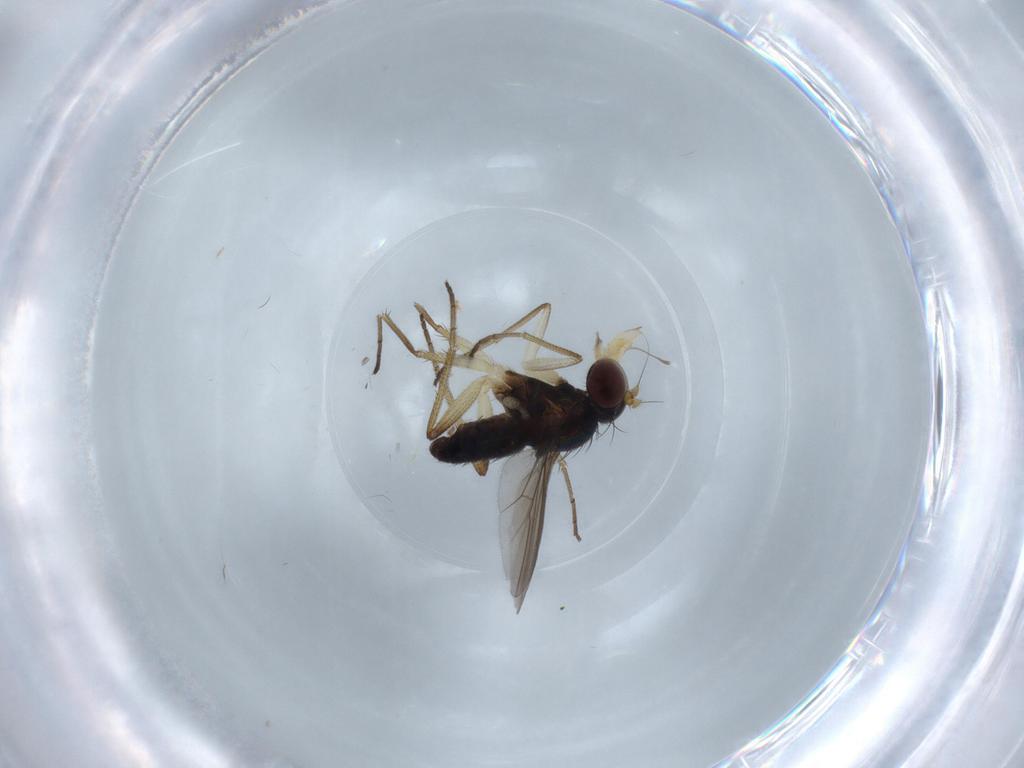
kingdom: Animalia
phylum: Arthropoda
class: Insecta
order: Diptera
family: Dolichopodidae
